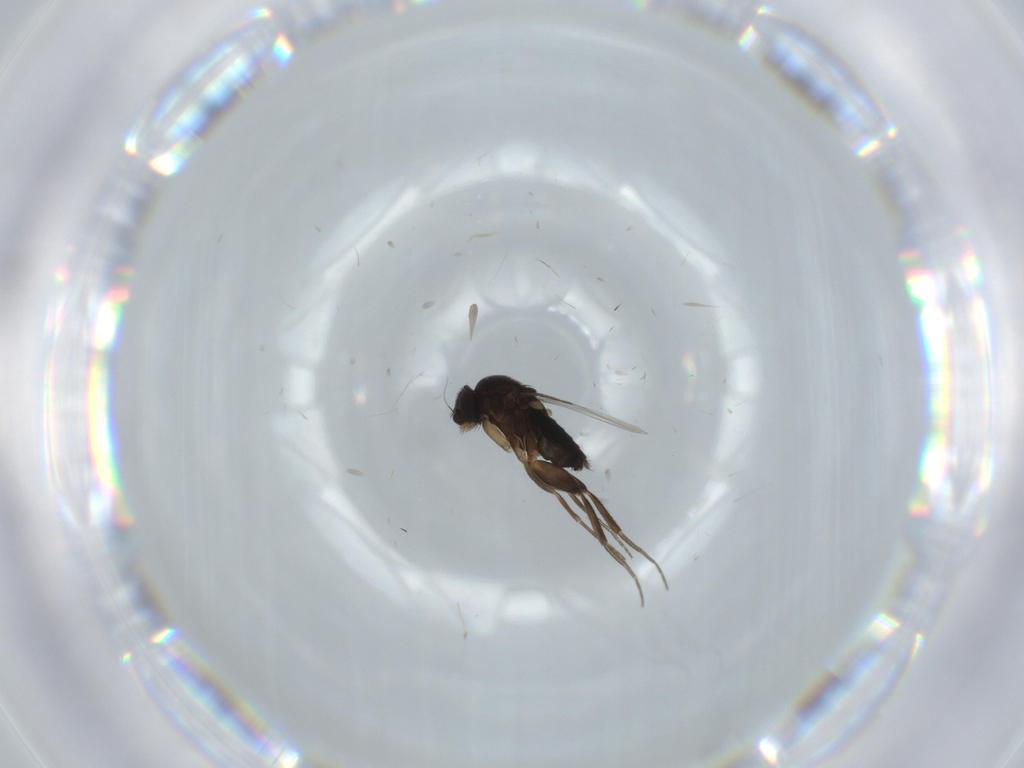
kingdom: Animalia
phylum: Arthropoda
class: Insecta
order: Diptera
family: Phoridae
